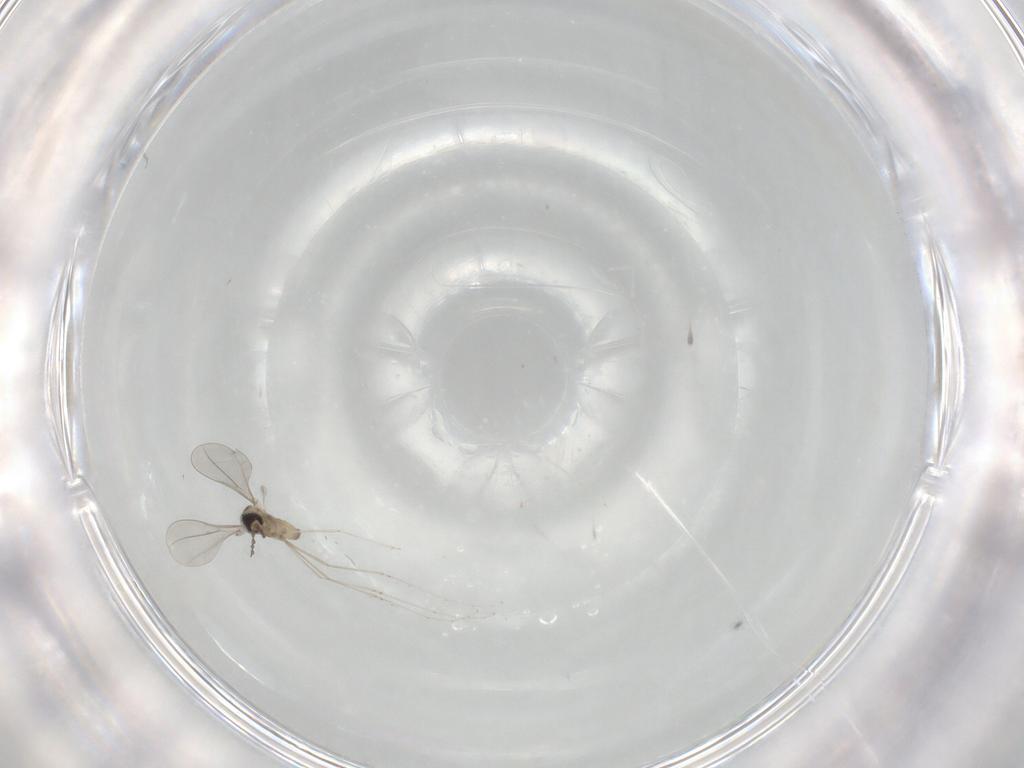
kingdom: Animalia
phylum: Arthropoda
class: Insecta
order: Diptera
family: Cecidomyiidae
